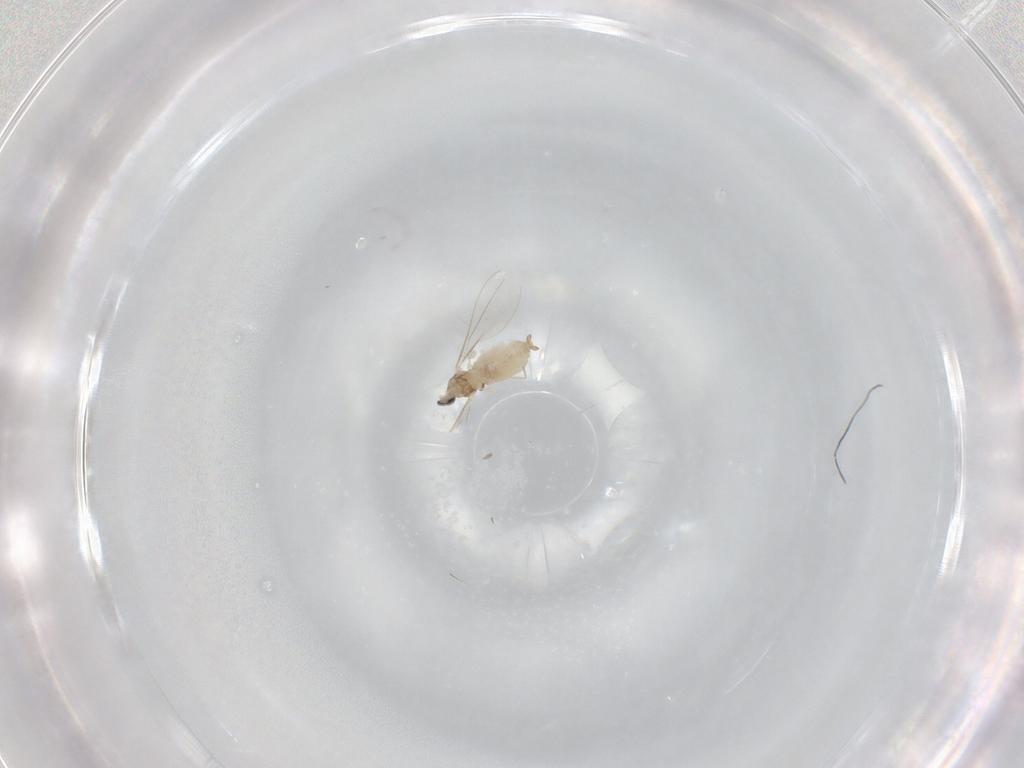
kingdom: Animalia
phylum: Arthropoda
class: Insecta
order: Diptera
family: Cecidomyiidae
